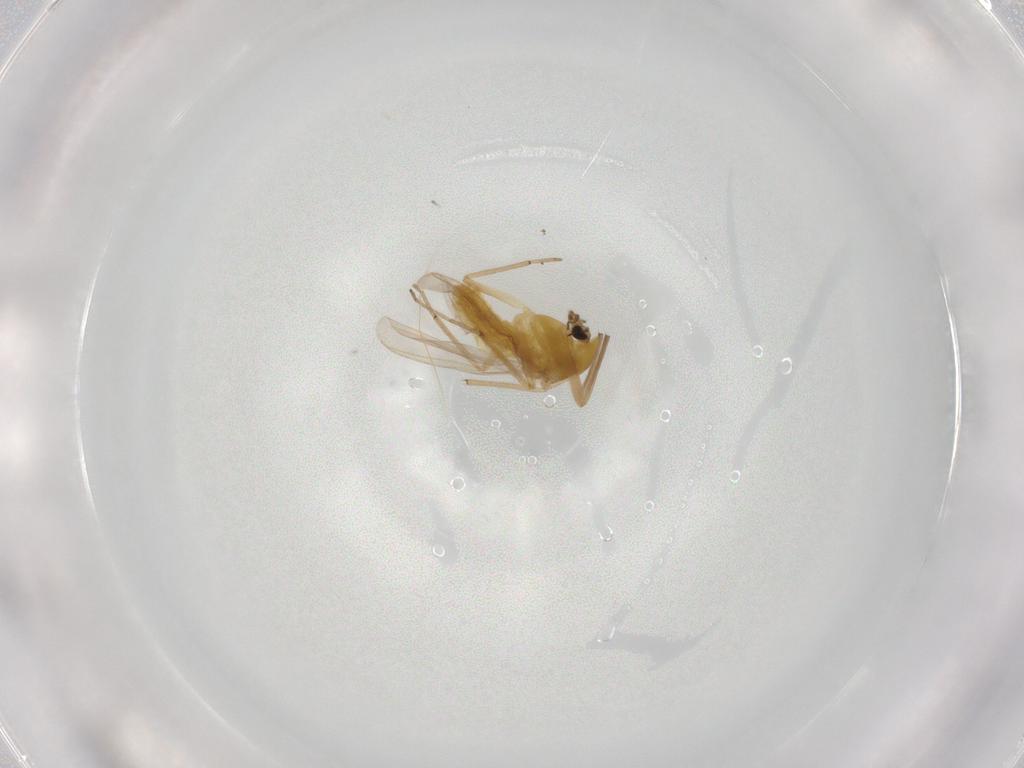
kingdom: Animalia
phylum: Arthropoda
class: Insecta
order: Diptera
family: Chironomidae
